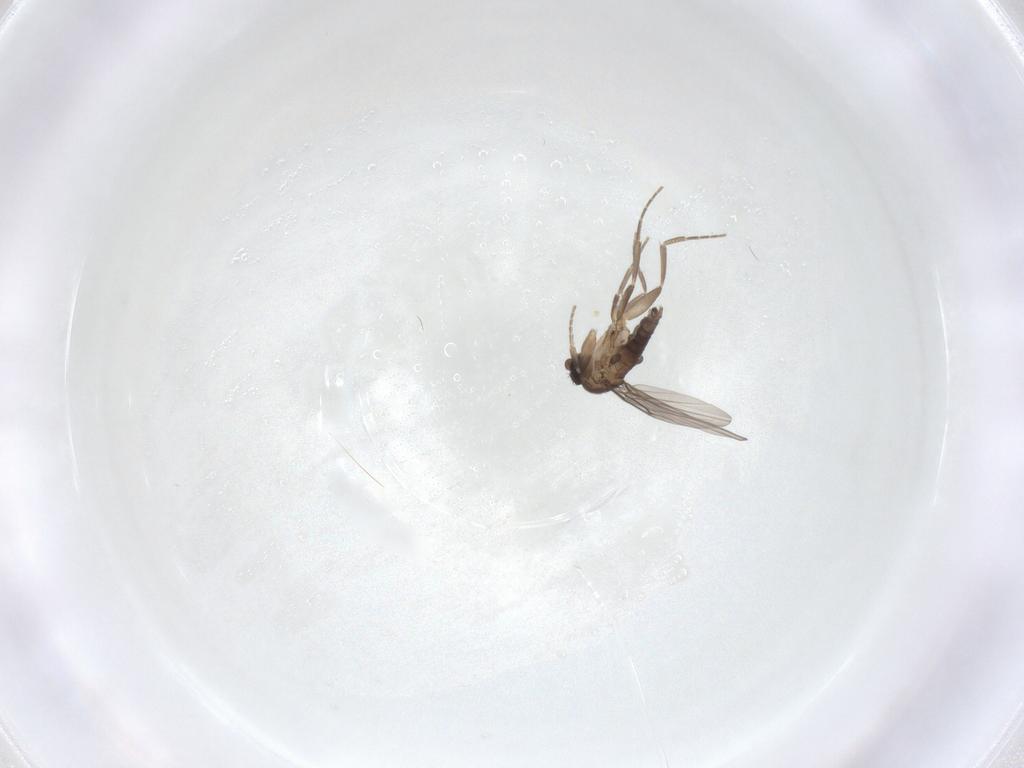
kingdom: Animalia
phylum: Arthropoda
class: Insecta
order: Diptera
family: Phoridae
